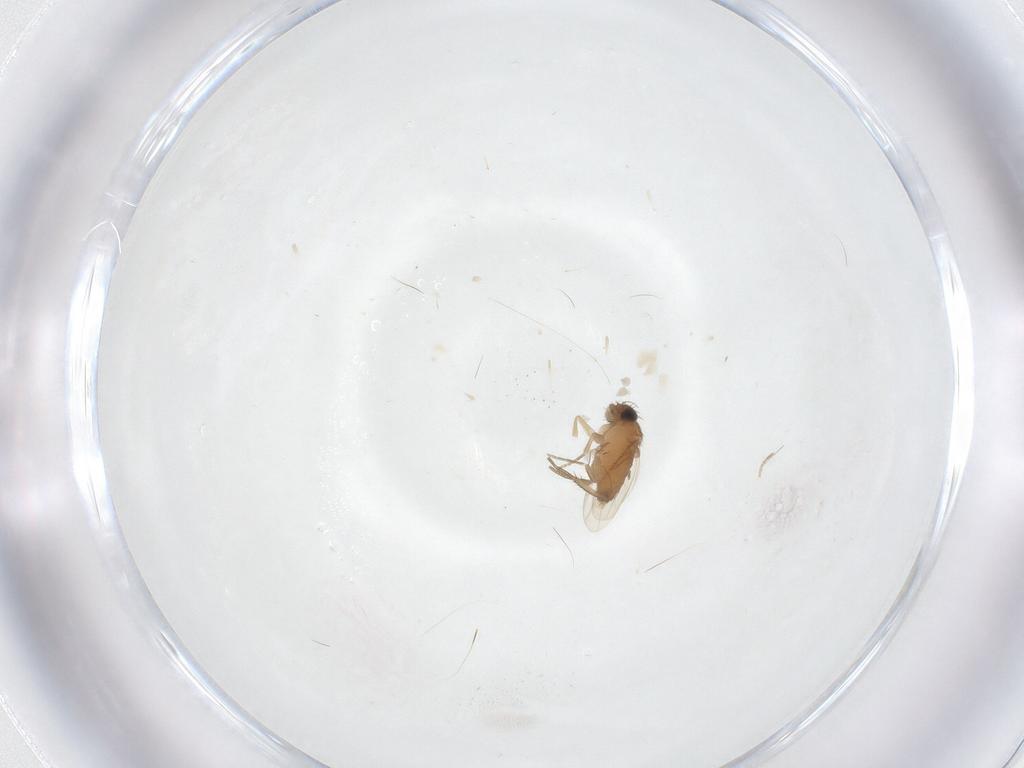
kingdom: Animalia
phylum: Arthropoda
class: Insecta
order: Diptera
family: Phoridae
